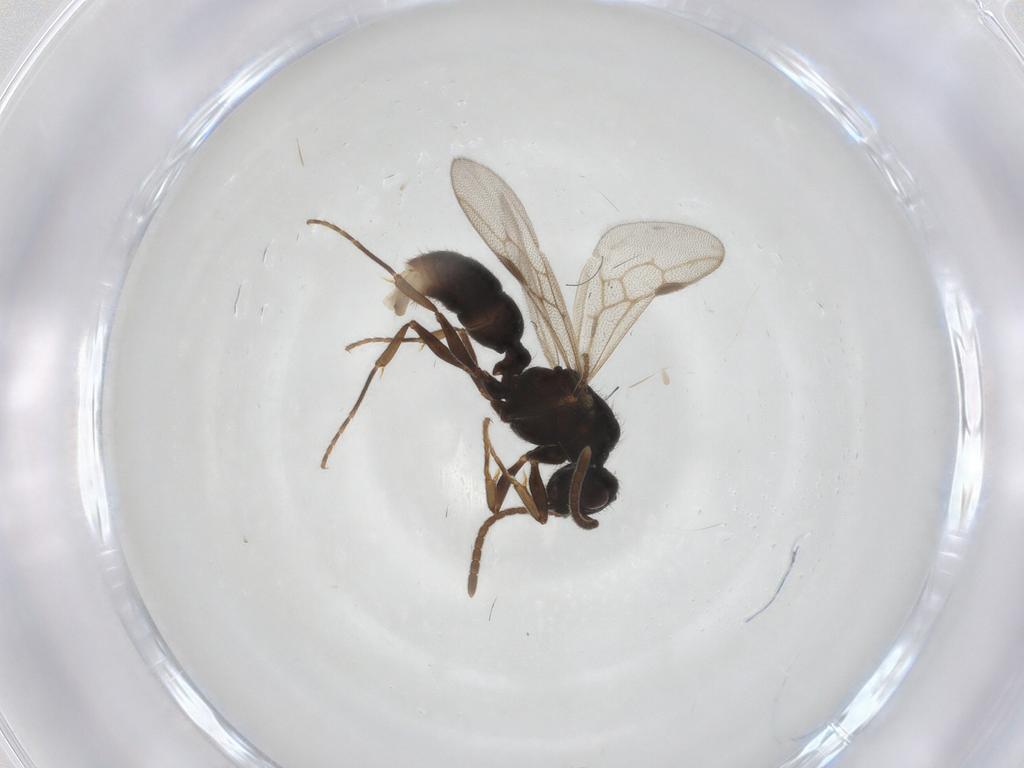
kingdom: Animalia
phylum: Arthropoda
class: Insecta
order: Hymenoptera
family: Formicidae
